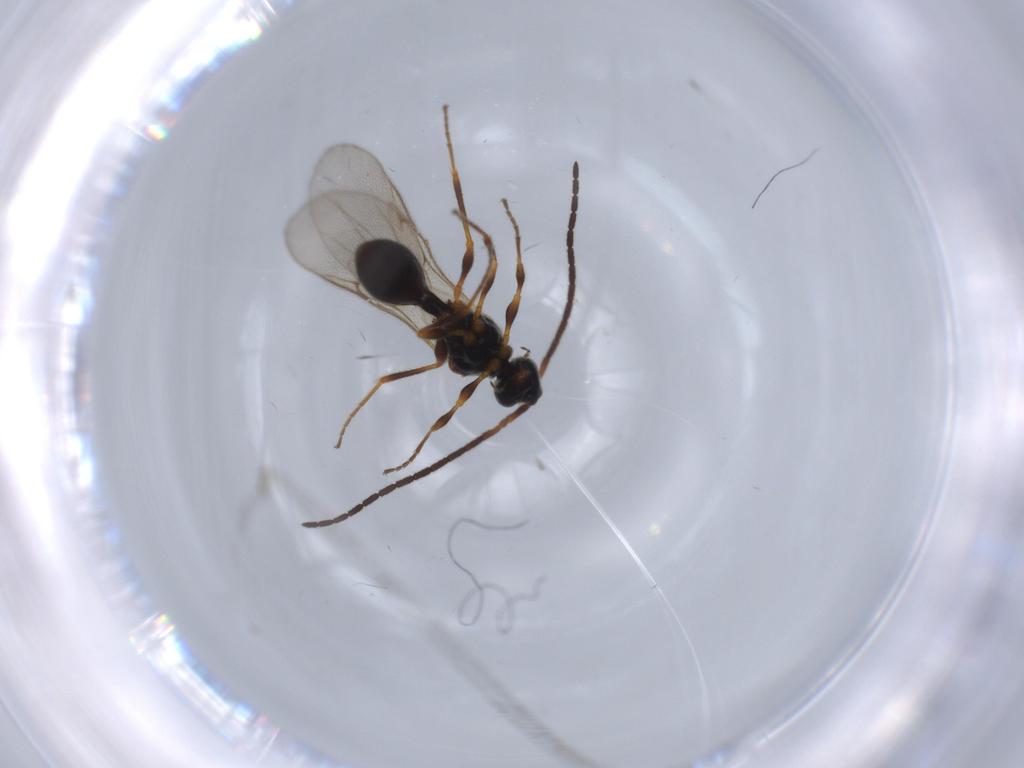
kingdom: Animalia
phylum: Arthropoda
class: Insecta
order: Hymenoptera
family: Diapriidae
